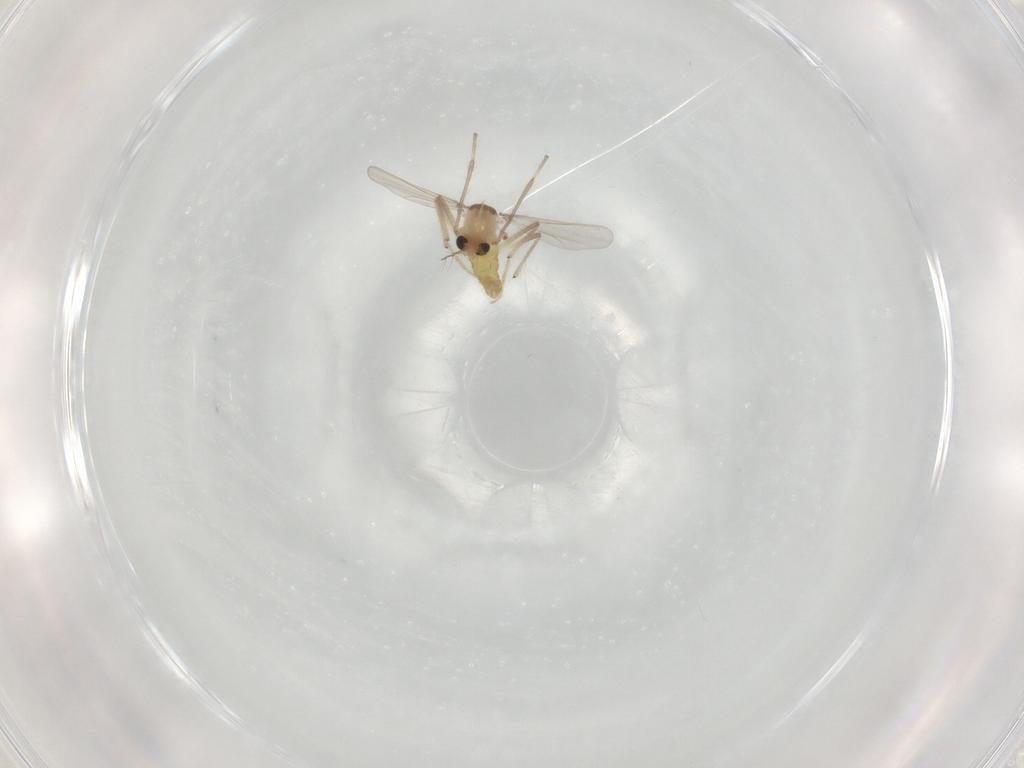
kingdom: Animalia
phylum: Arthropoda
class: Insecta
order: Diptera
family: Chironomidae
